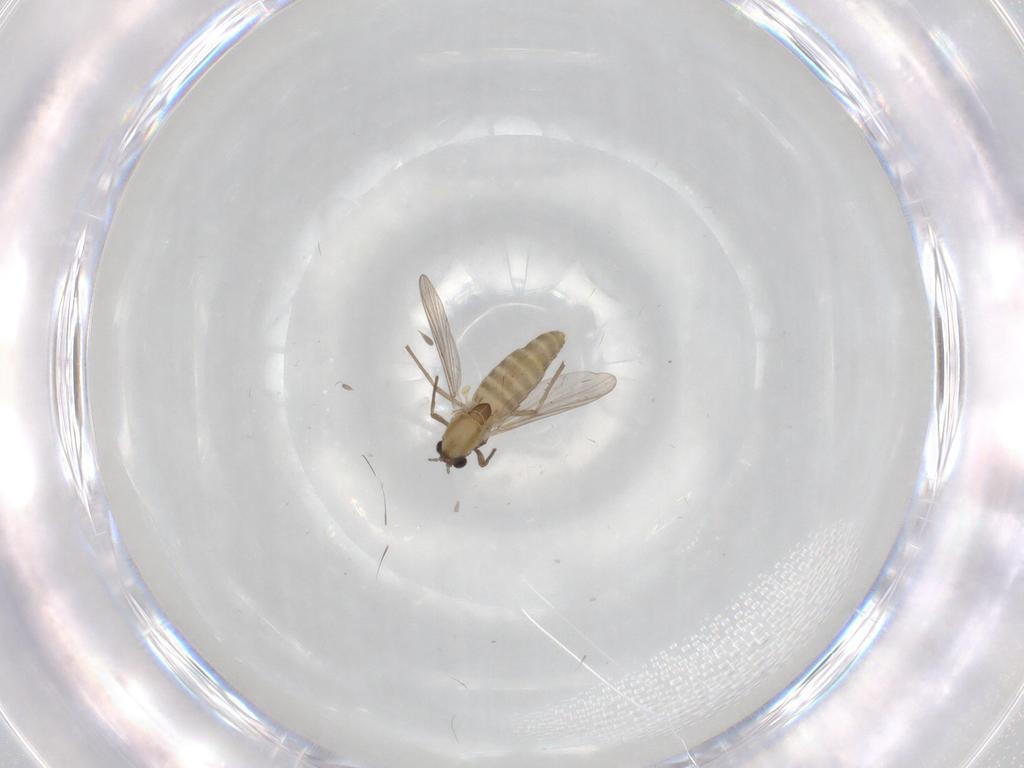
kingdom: Animalia
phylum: Arthropoda
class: Insecta
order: Diptera
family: Chironomidae
